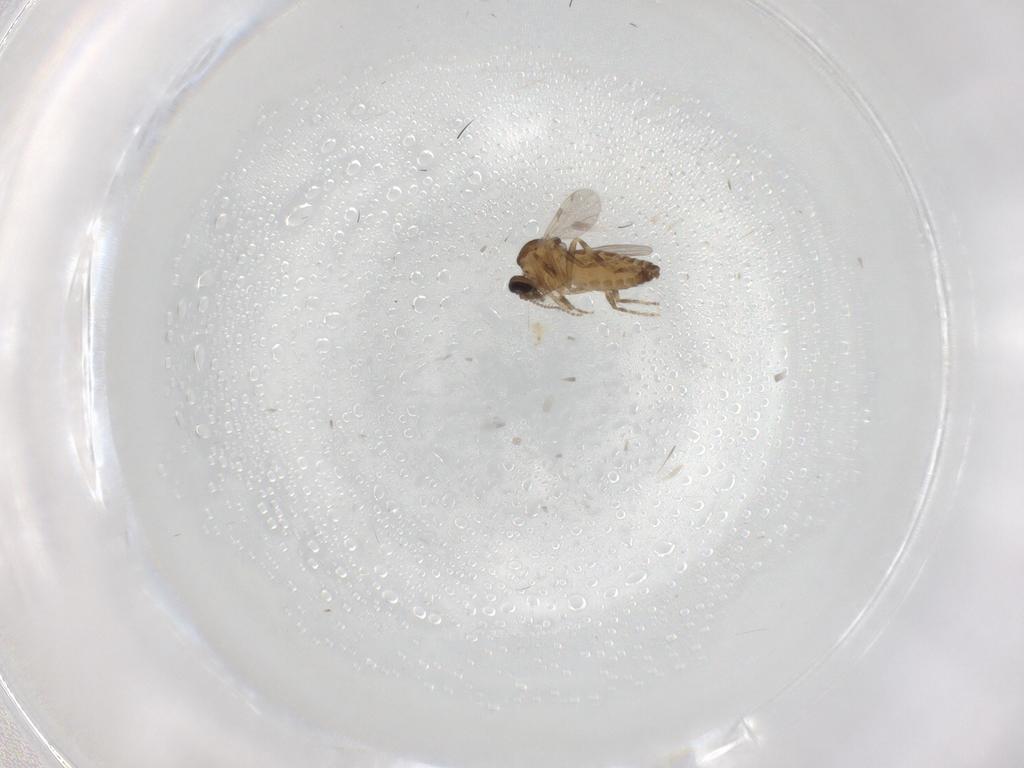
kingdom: Animalia
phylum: Arthropoda
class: Insecta
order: Diptera
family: Ceratopogonidae
